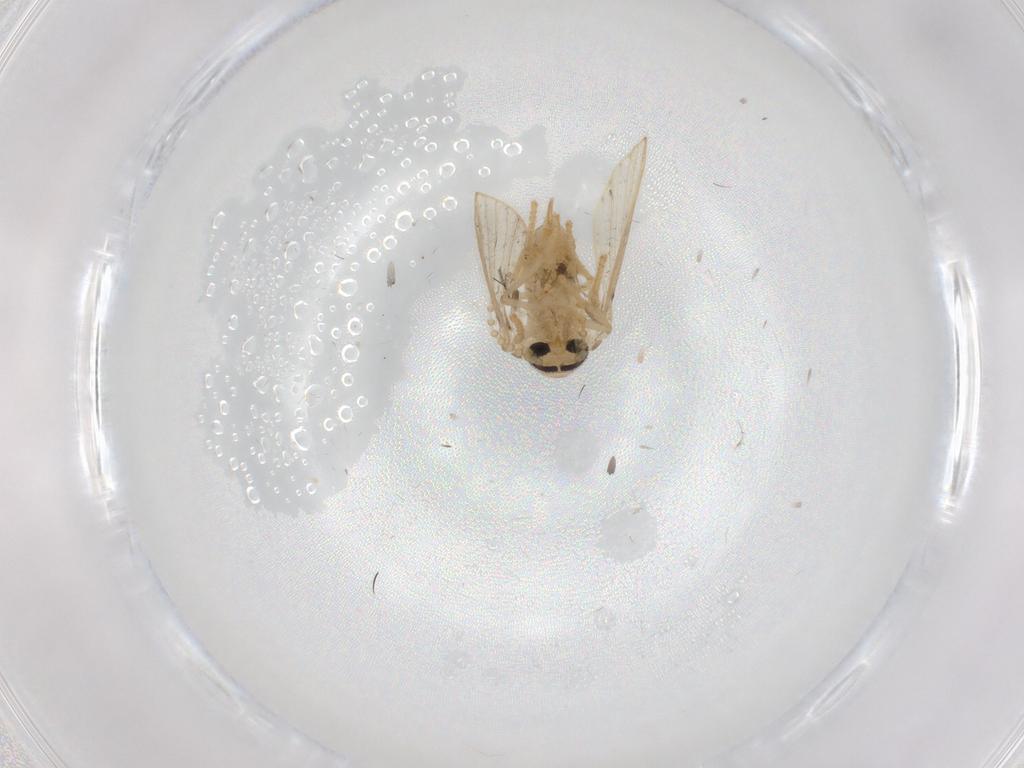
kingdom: Animalia
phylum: Arthropoda
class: Insecta
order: Diptera
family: Psychodidae
